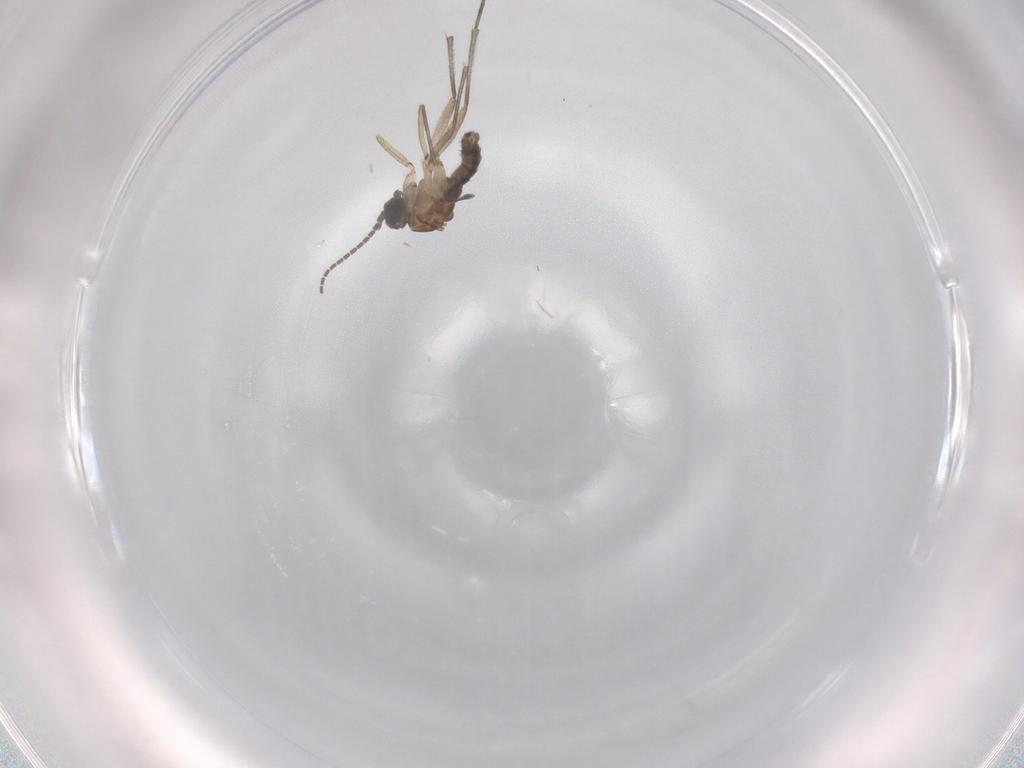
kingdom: Animalia
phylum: Arthropoda
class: Insecta
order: Diptera
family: Sciaridae
